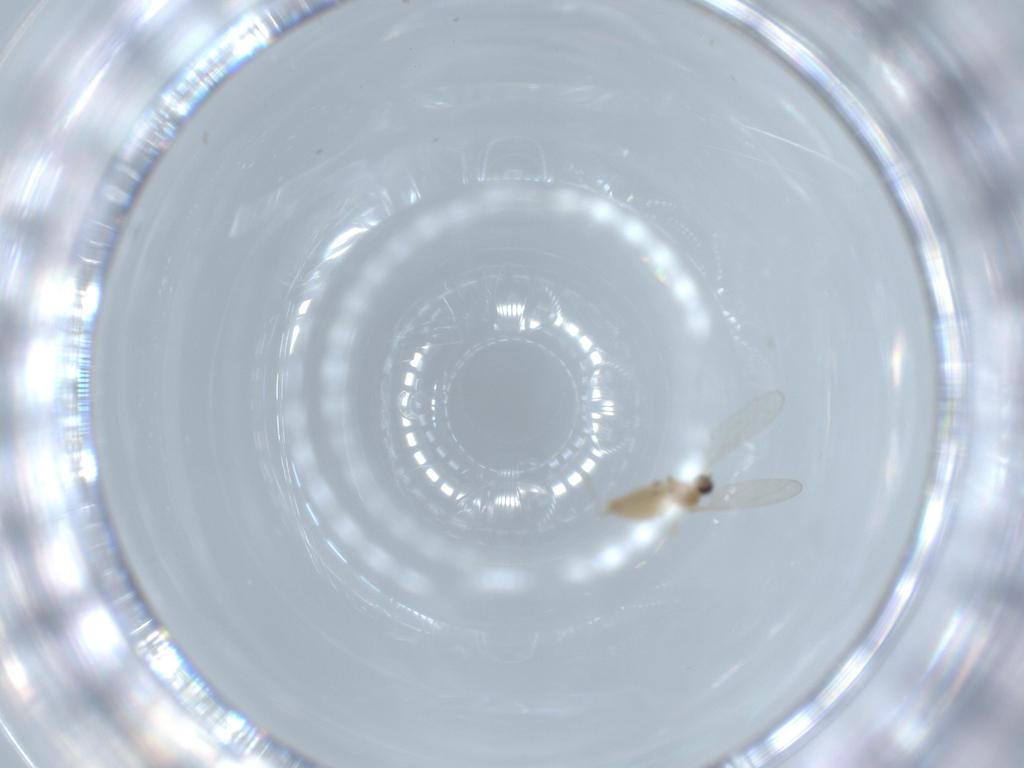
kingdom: Animalia
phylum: Arthropoda
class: Insecta
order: Diptera
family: Cecidomyiidae
